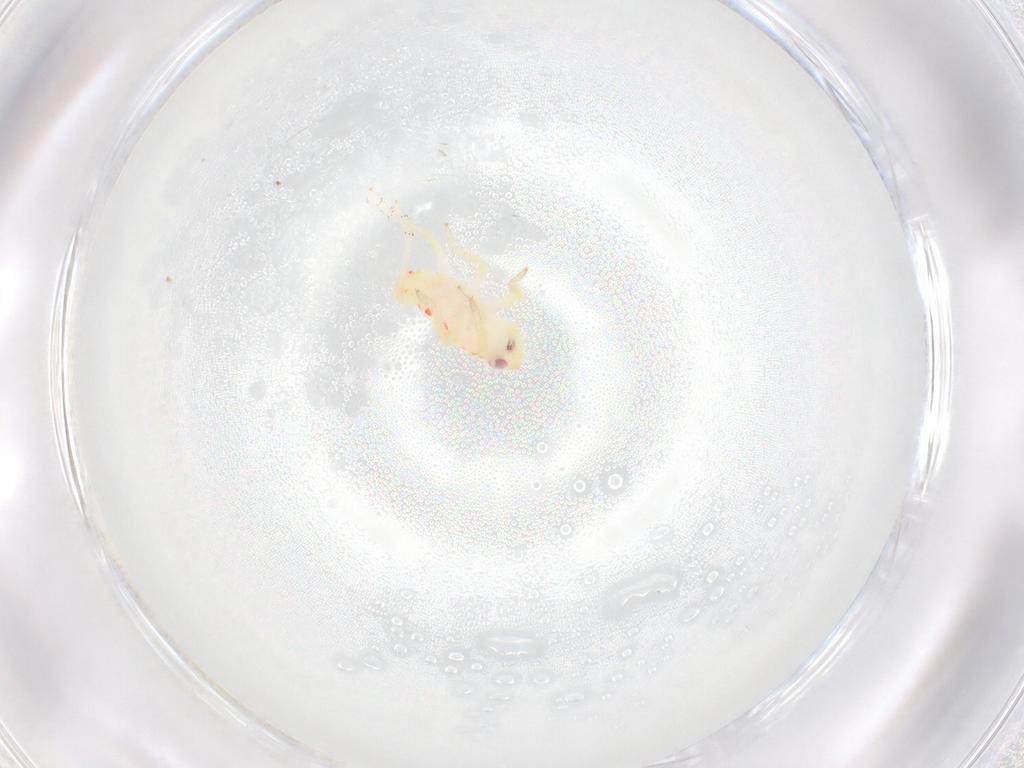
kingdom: Animalia
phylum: Arthropoda
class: Insecta
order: Hemiptera
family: Tropiduchidae
